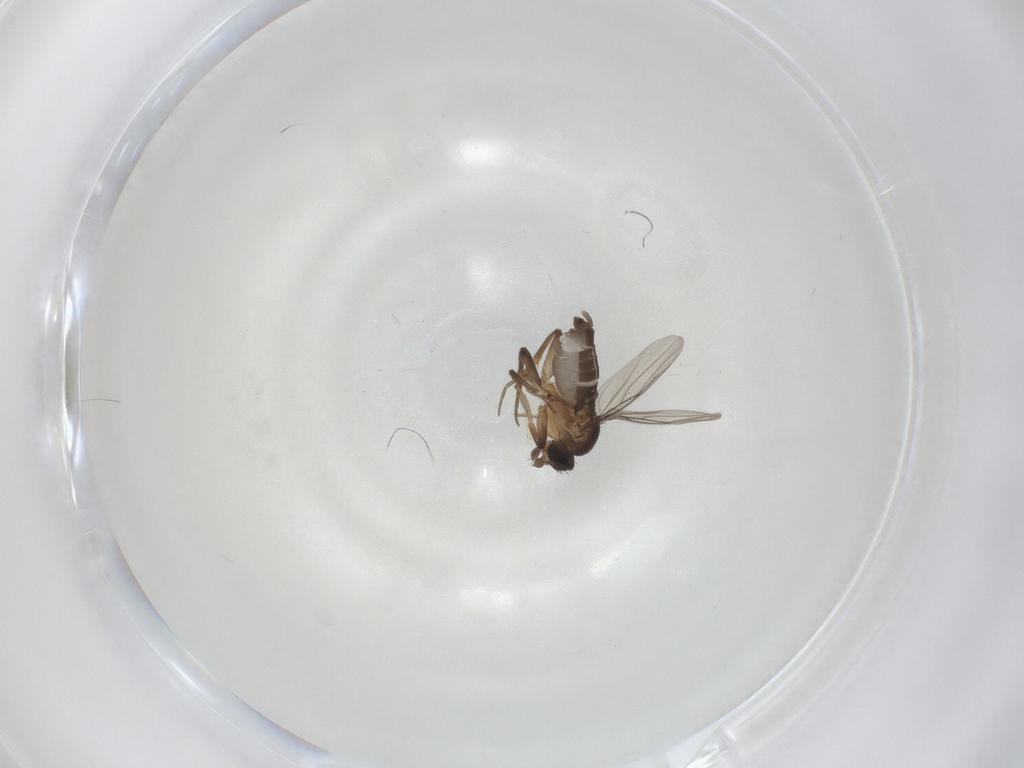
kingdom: Animalia
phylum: Arthropoda
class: Insecta
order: Diptera
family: Phoridae
